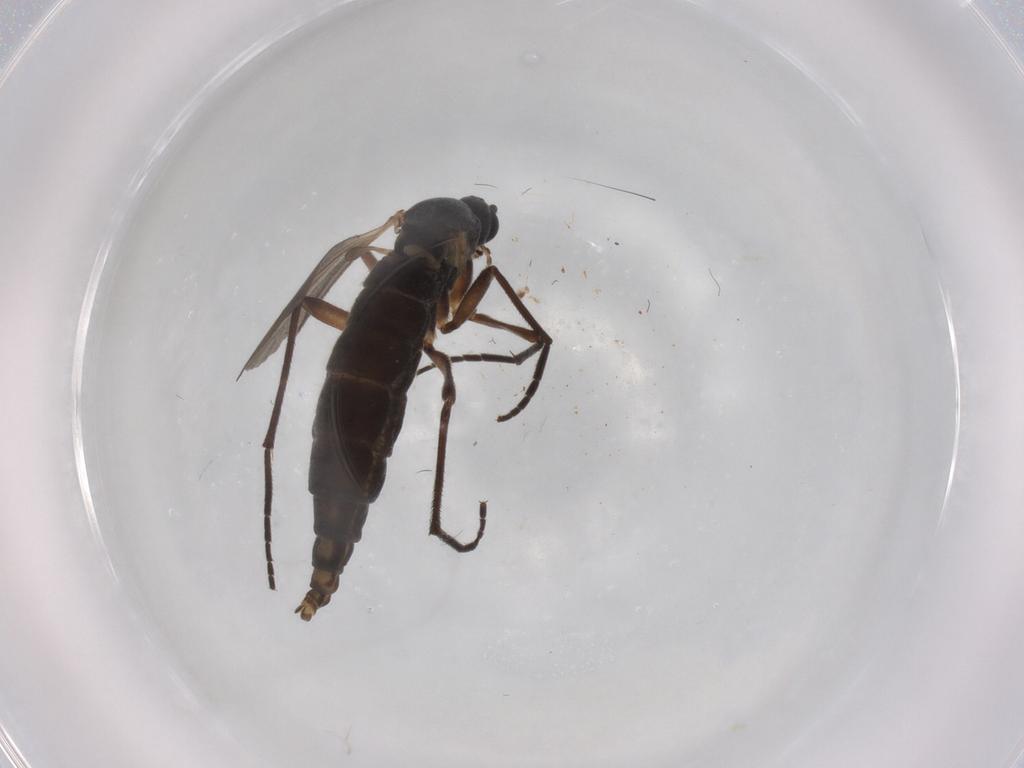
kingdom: Animalia
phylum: Arthropoda
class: Insecta
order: Diptera
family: Sciaridae
